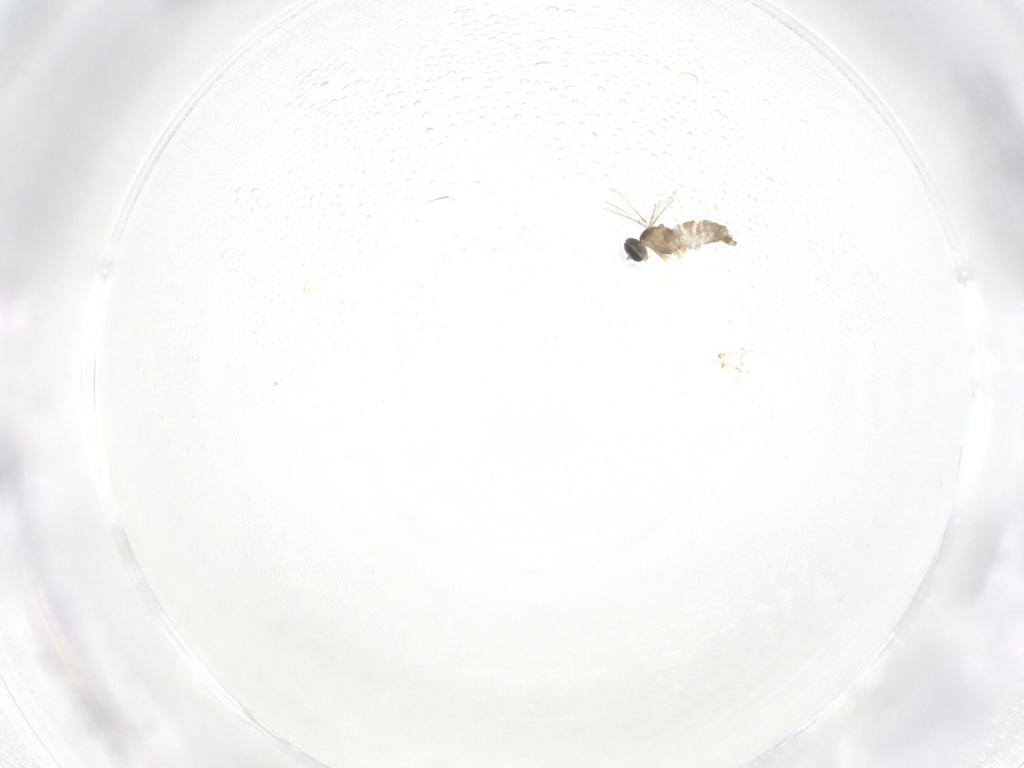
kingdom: Animalia
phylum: Arthropoda
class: Insecta
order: Diptera
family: Cecidomyiidae
